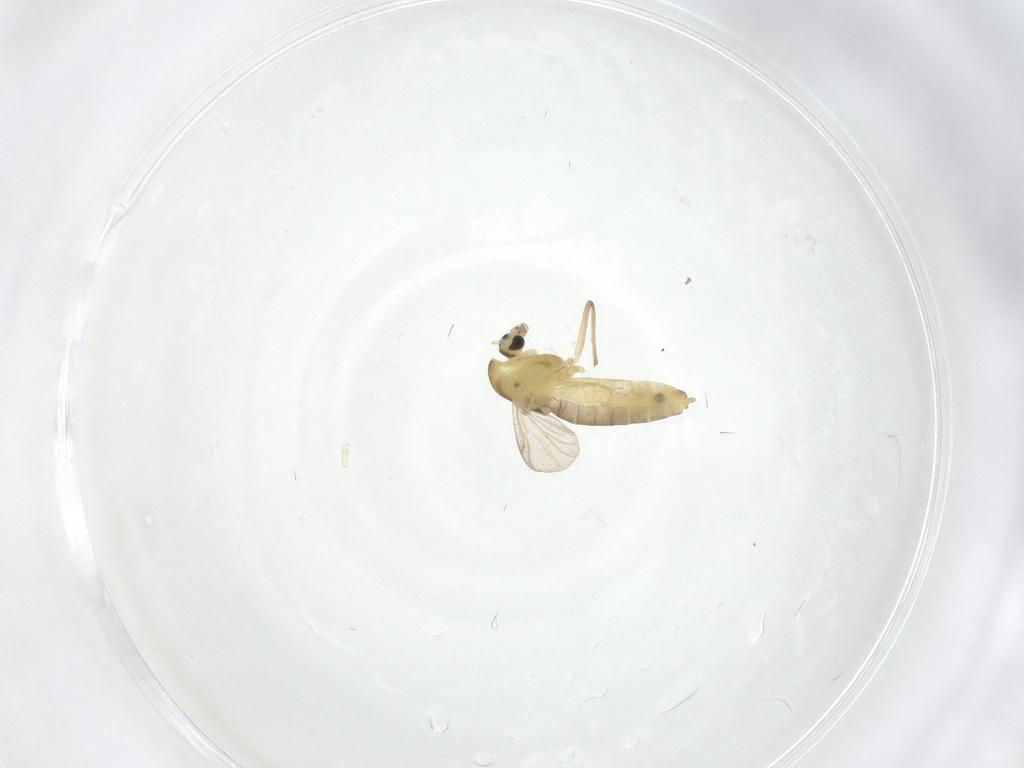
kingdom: Animalia
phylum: Arthropoda
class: Insecta
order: Diptera
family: Chironomidae
